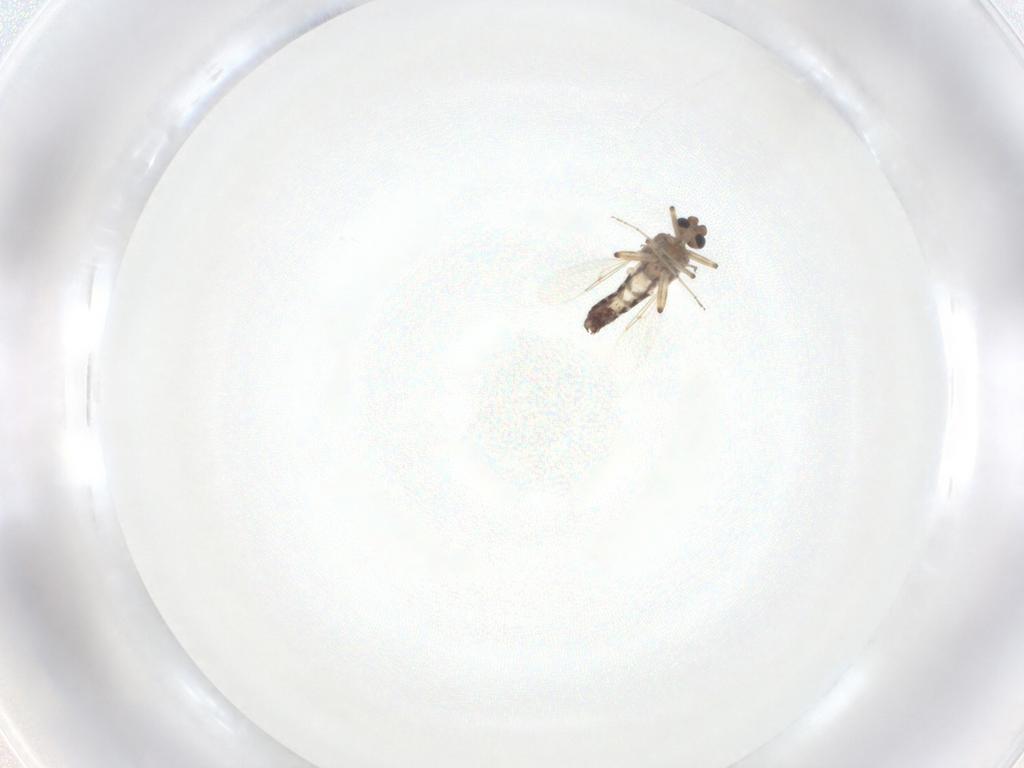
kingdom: Animalia
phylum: Arthropoda
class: Insecta
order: Diptera
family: Ceratopogonidae
